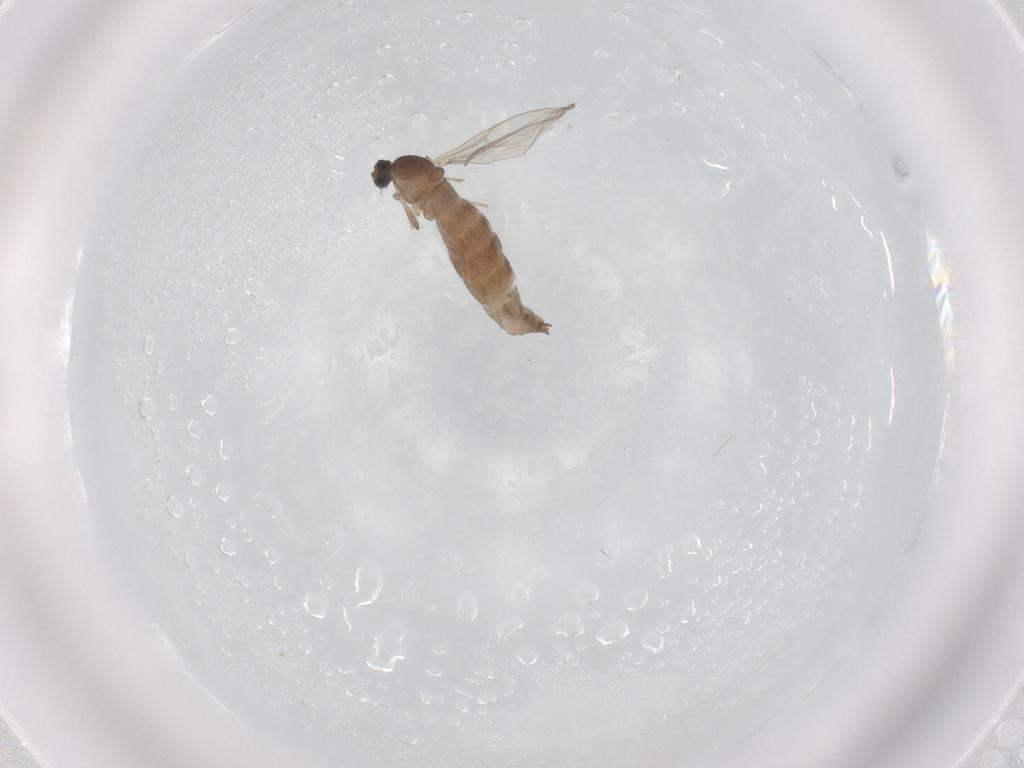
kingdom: Animalia
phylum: Arthropoda
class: Insecta
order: Diptera
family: Cecidomyiidae
